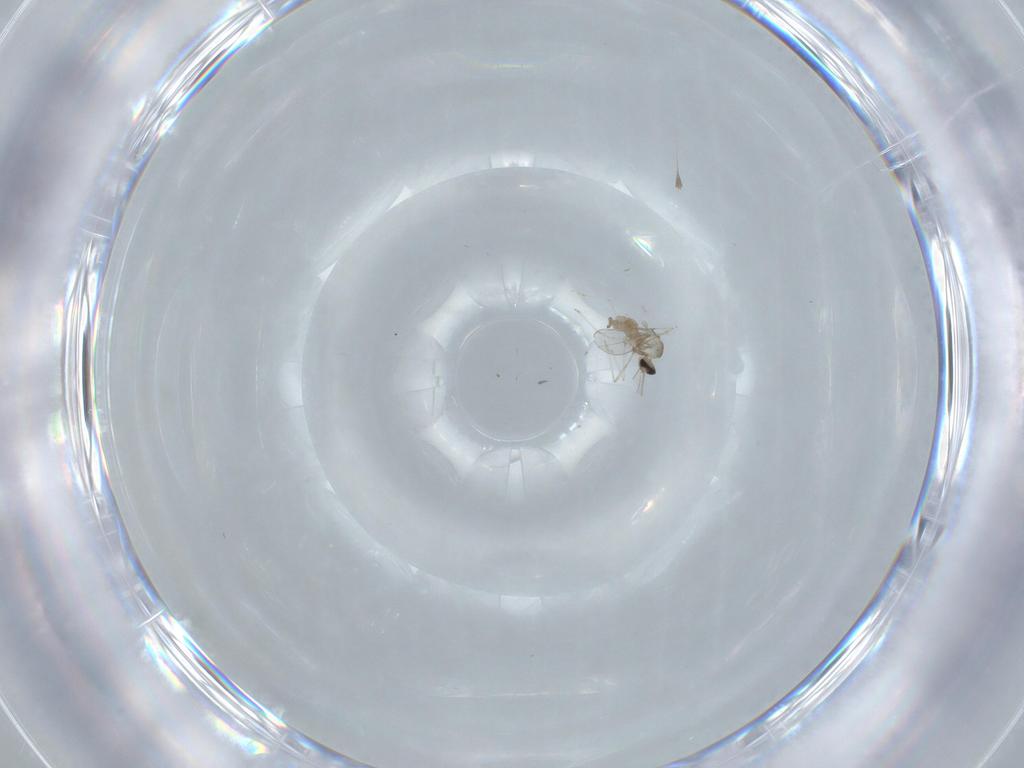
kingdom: Animalia
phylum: Arthropoda
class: Insecta
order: Diptera
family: Cecidomyiidae
